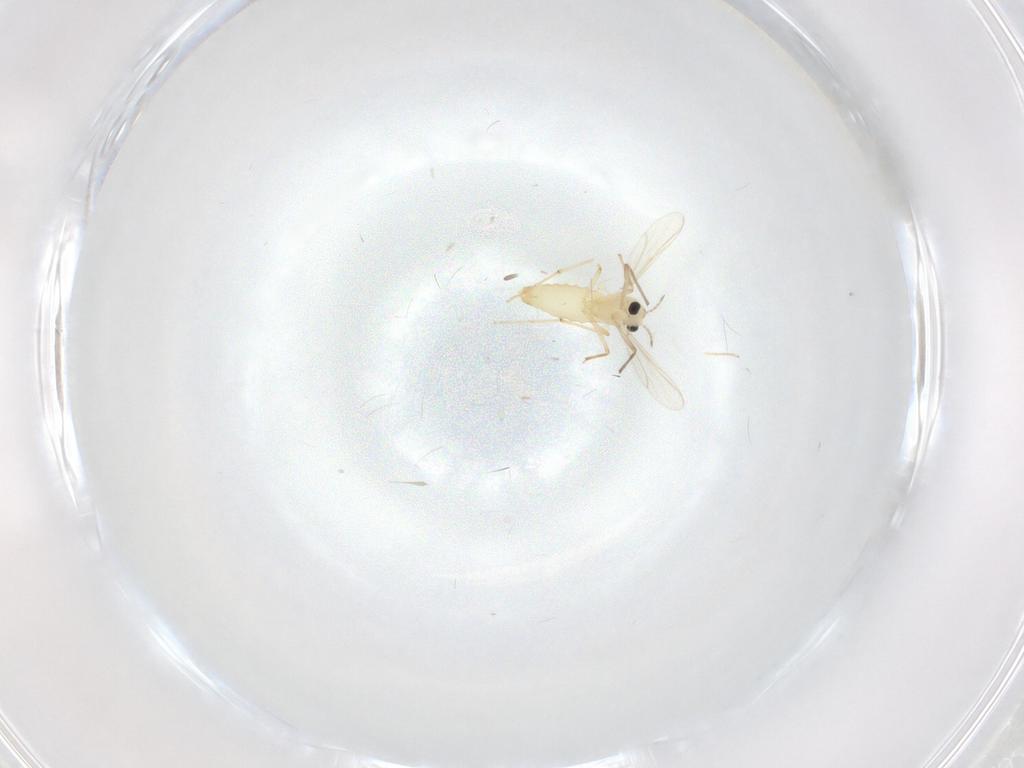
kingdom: Animalia
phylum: Arthropoda
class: Insecta
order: Diptera
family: Chironomidae
